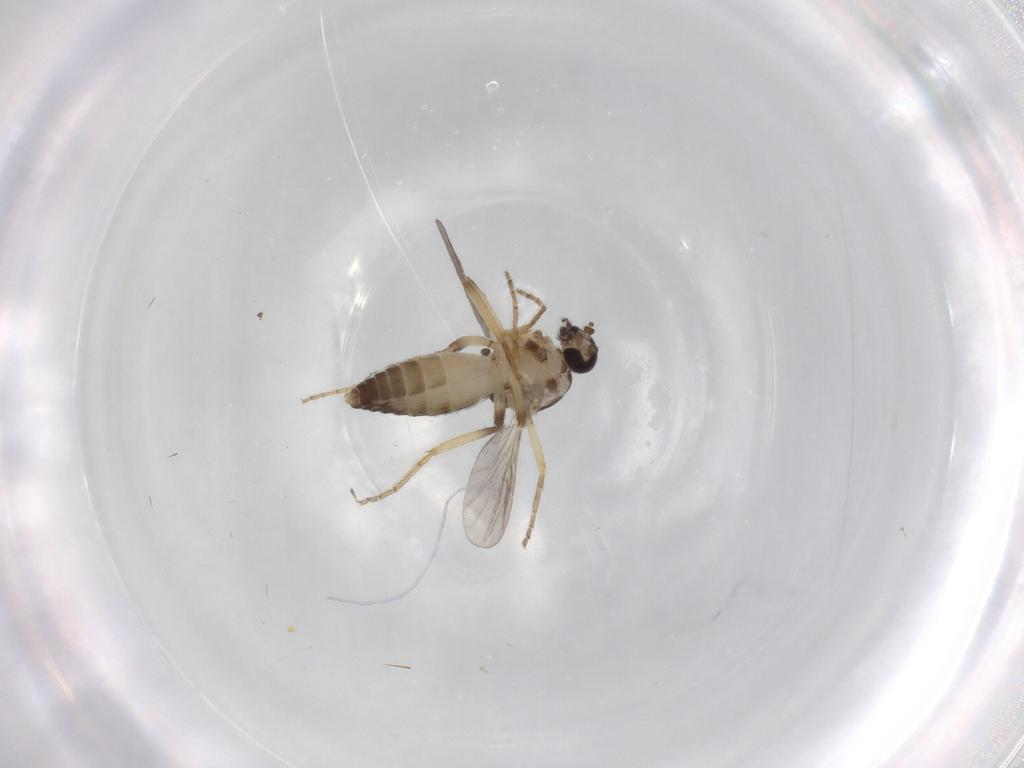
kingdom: Animalia
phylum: Arthropoda
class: Insecta
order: Diptera
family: Ceratopogonidae
